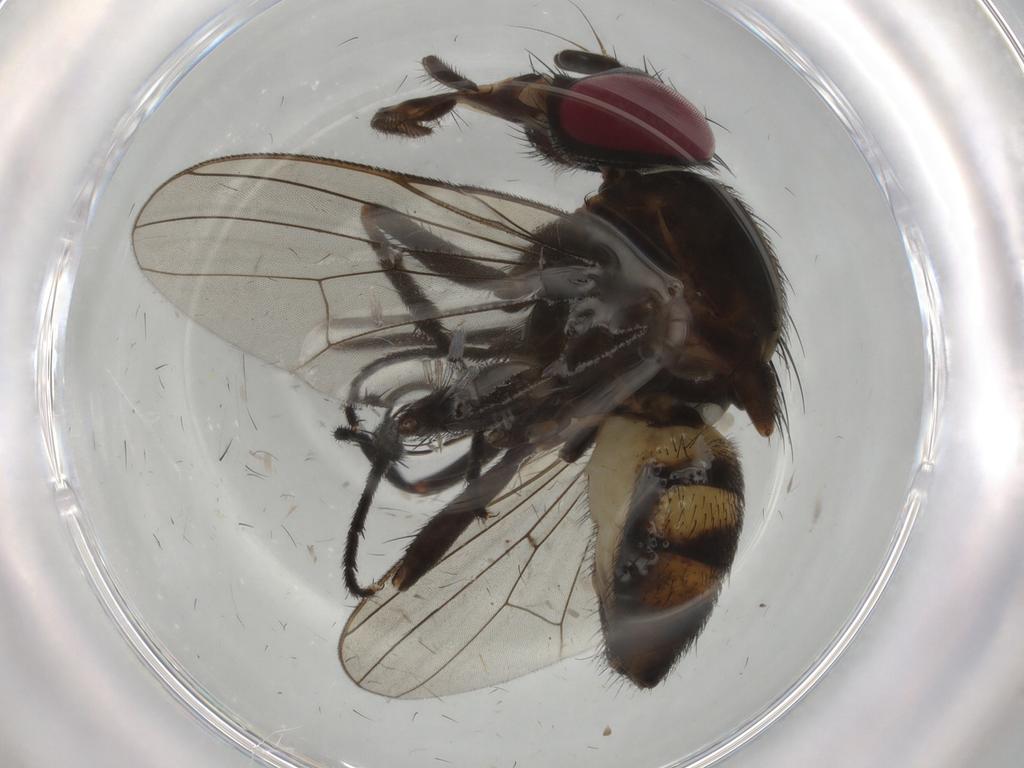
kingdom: Animalia
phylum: Arthropoda
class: Insecta
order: Diptera
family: Fannia
